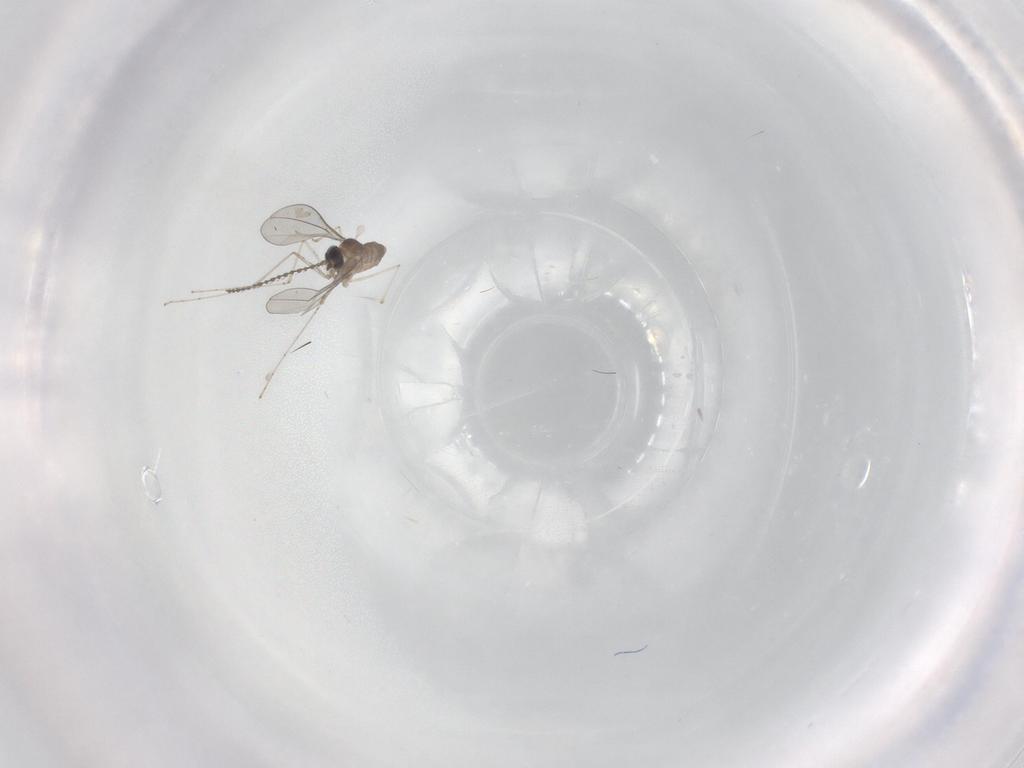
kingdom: Animalia
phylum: Arthropoda
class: Insecta
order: Diptera
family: Cecidomyiidae
